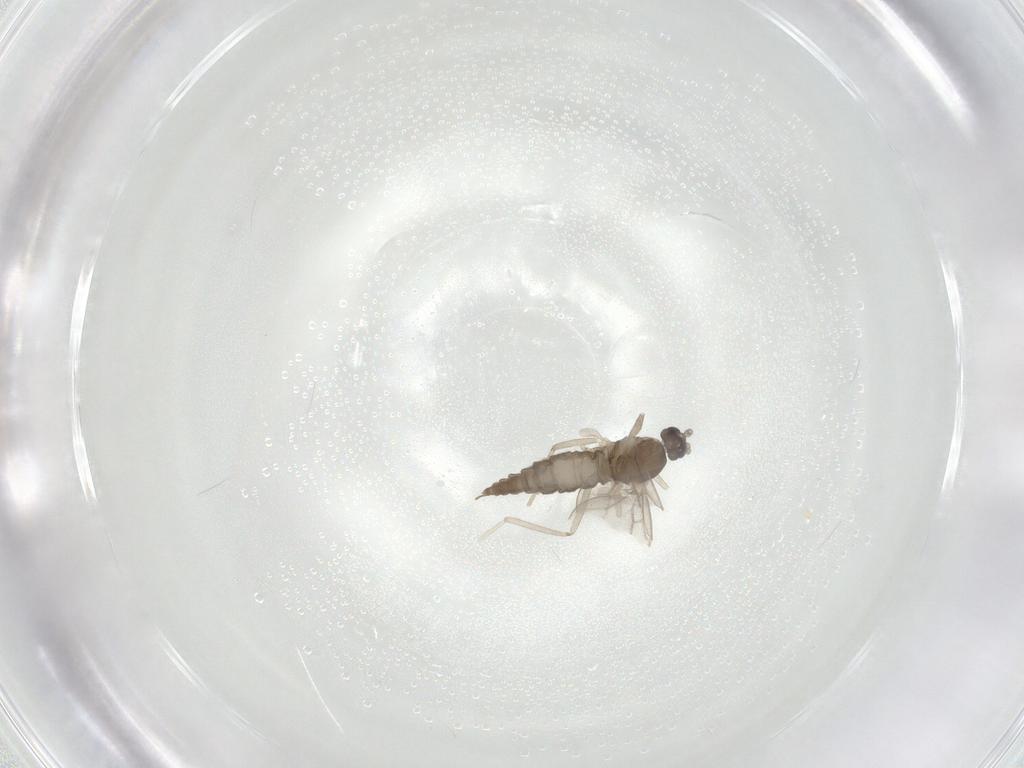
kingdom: Animalia
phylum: Arthropoda
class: Insecta
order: Diptera
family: Cecidomyiidae
